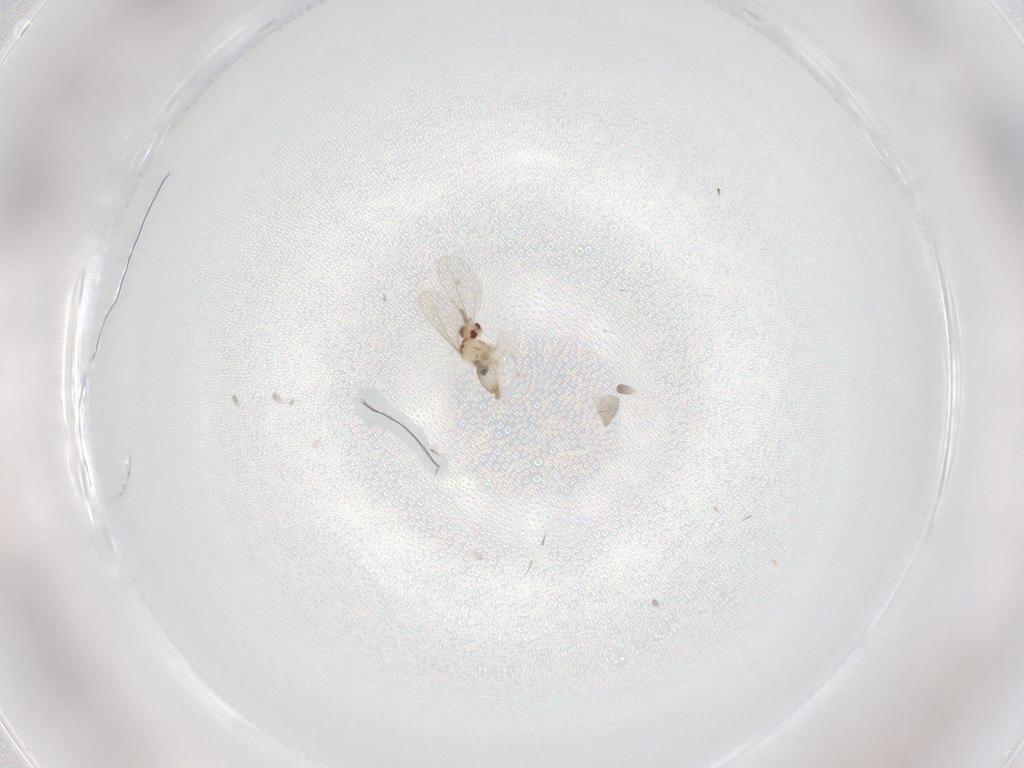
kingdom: Animalia
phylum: Arthropoda
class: Insecta
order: Diptera
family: Cecidomyiidae
